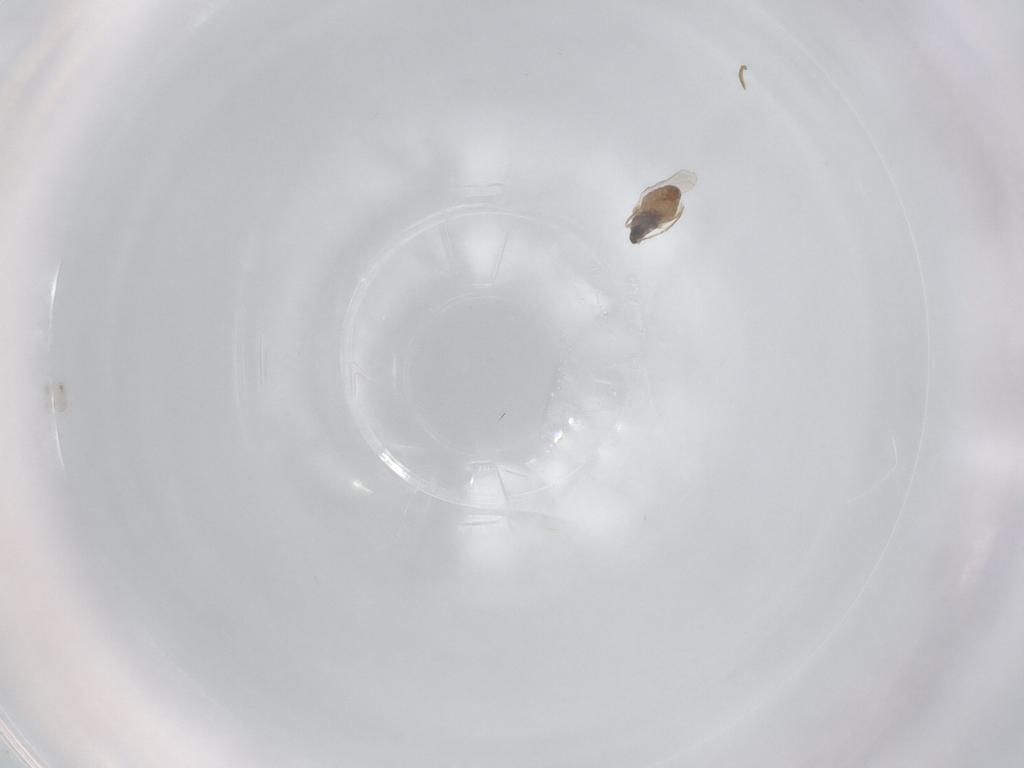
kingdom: Animalia
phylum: Arthropoda
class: Insecta
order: Diptera
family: Cecidomyiidae
